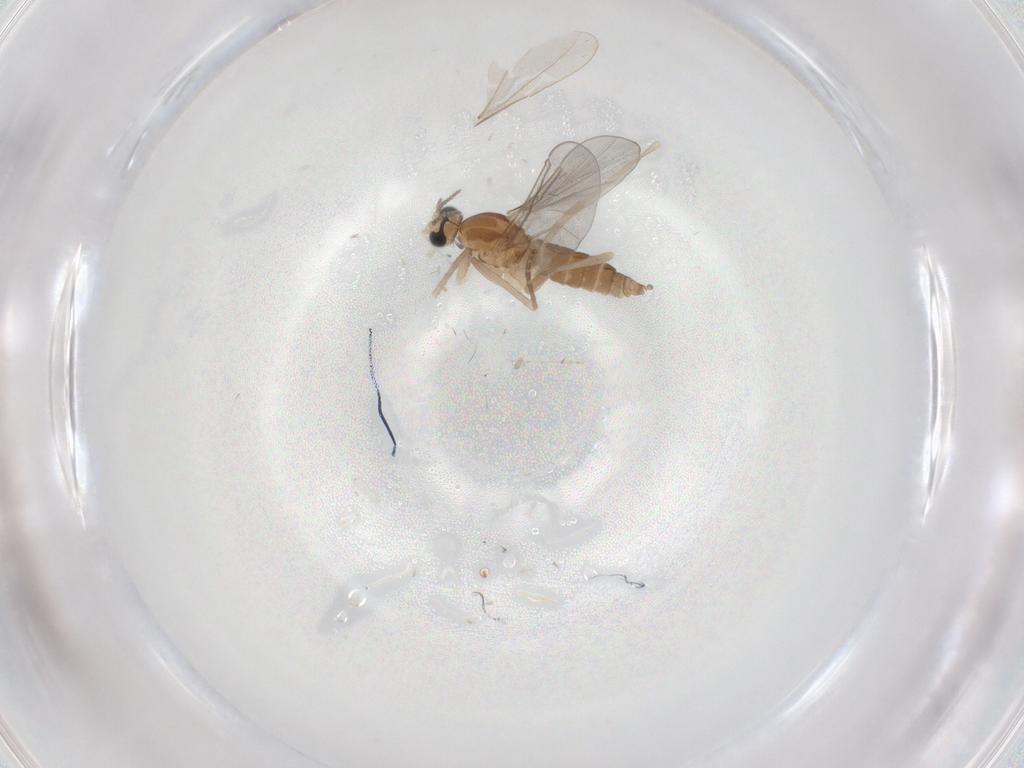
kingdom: Animalia
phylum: Arthropoda
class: Insecta
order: Diptera
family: Cecidomyiidae
